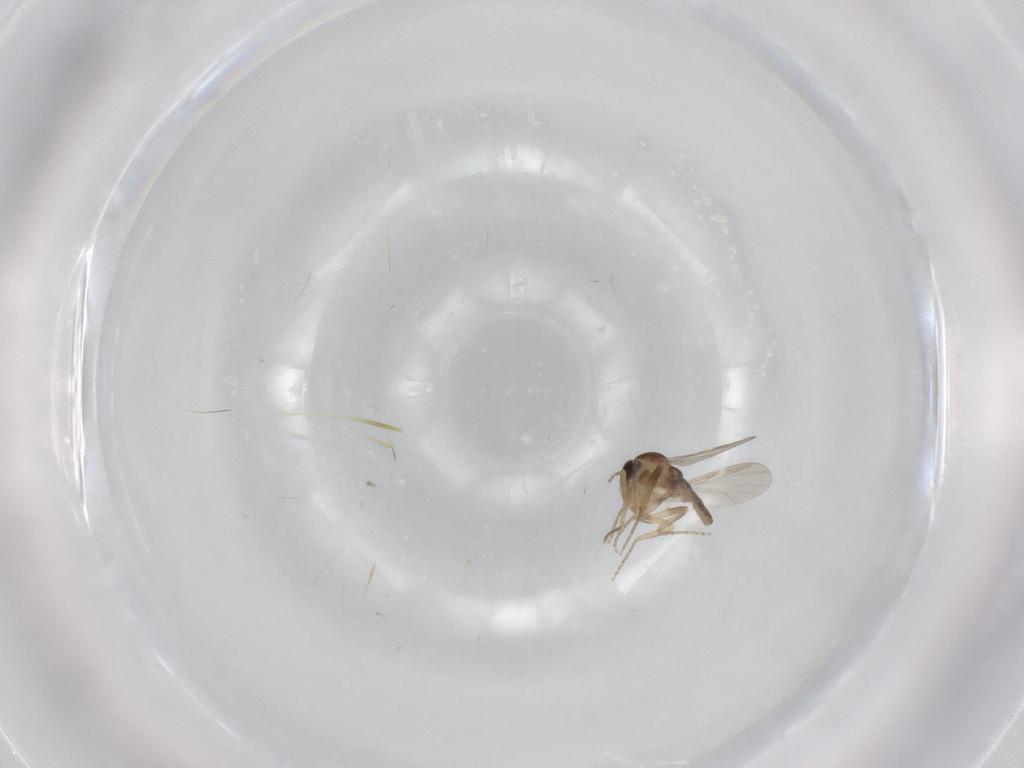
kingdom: Animalia
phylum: Arthropoda
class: Insecta
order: Diptera
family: Ceratopogonidae
